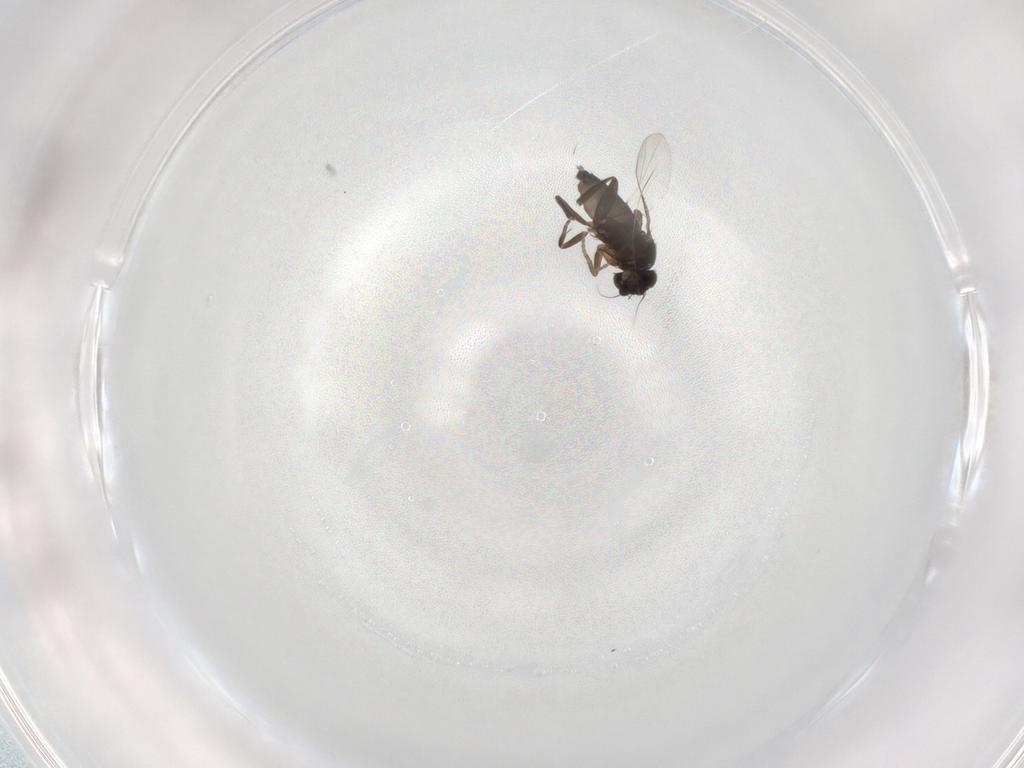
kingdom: Animalia
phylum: Arthropoda
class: Insecta
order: Diptera
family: Phoridae
